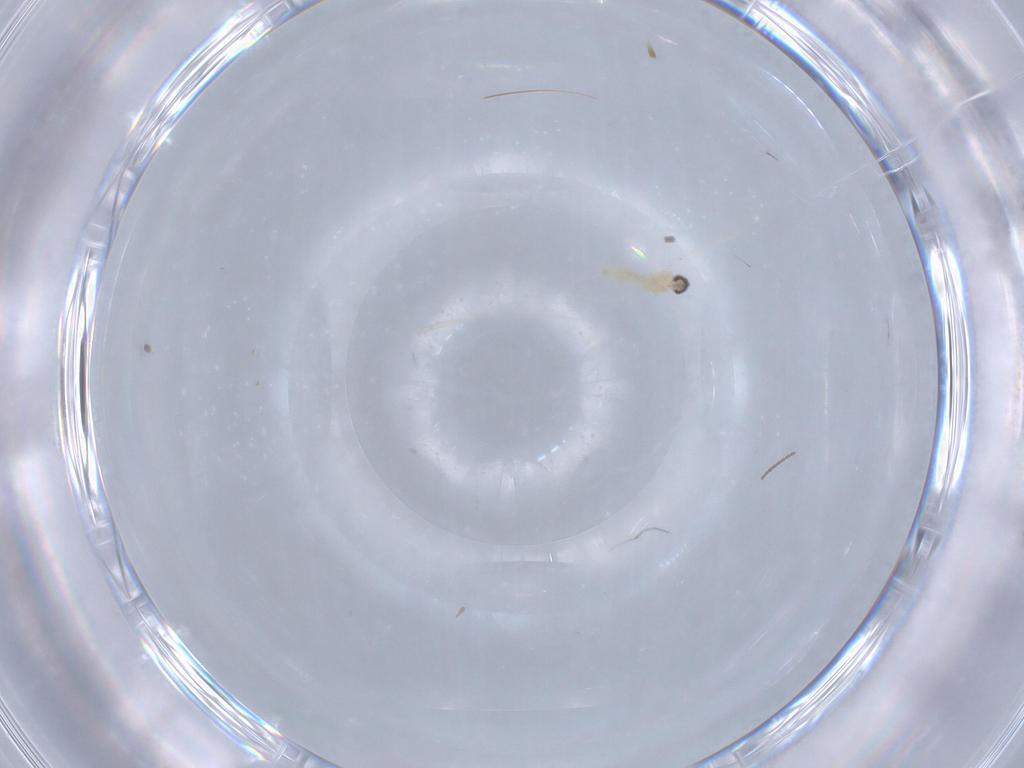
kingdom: Animalia
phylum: Arthropoda
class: Insecta
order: Diptera
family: Cecidomyiidae
